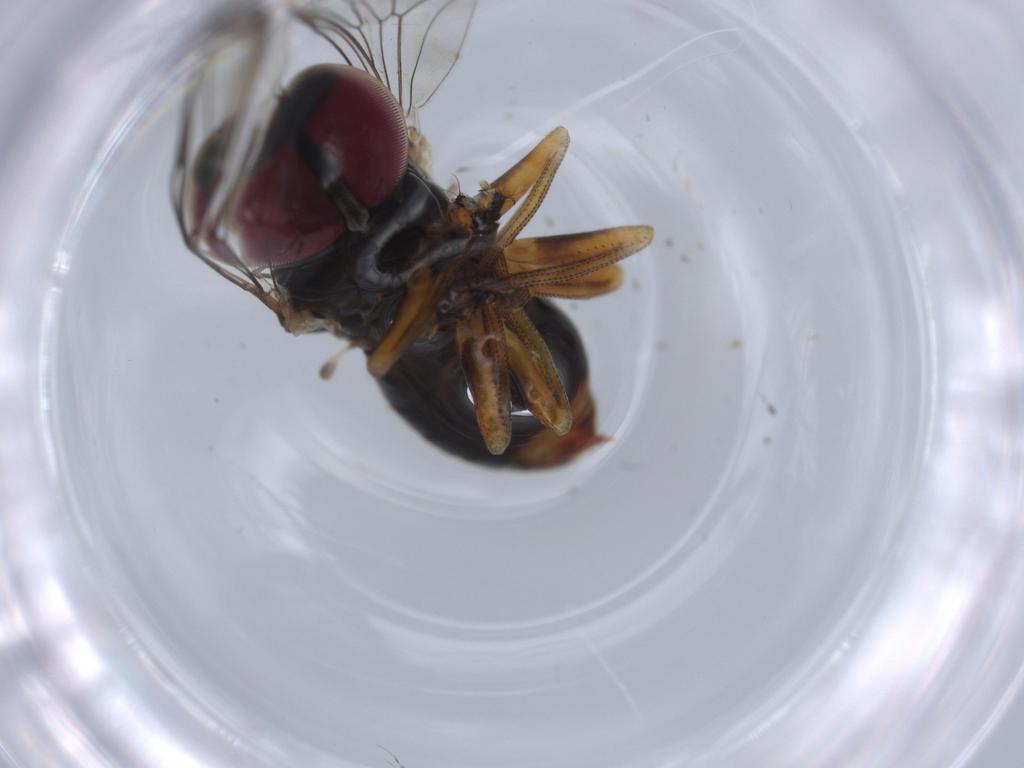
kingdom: Animalia
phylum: Arthropoda
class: Insecta
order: Diptera
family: Pipunculidae
